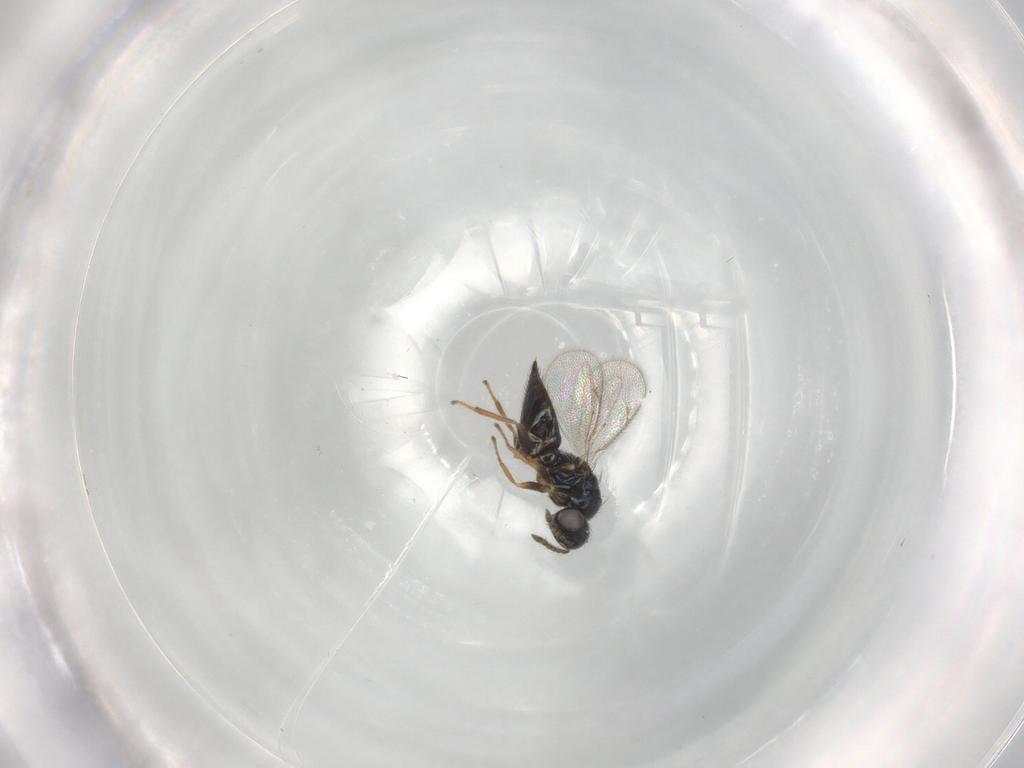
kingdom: Animalia
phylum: Arthropoda
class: Insecta
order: Hymenoptera
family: Eulophidae
